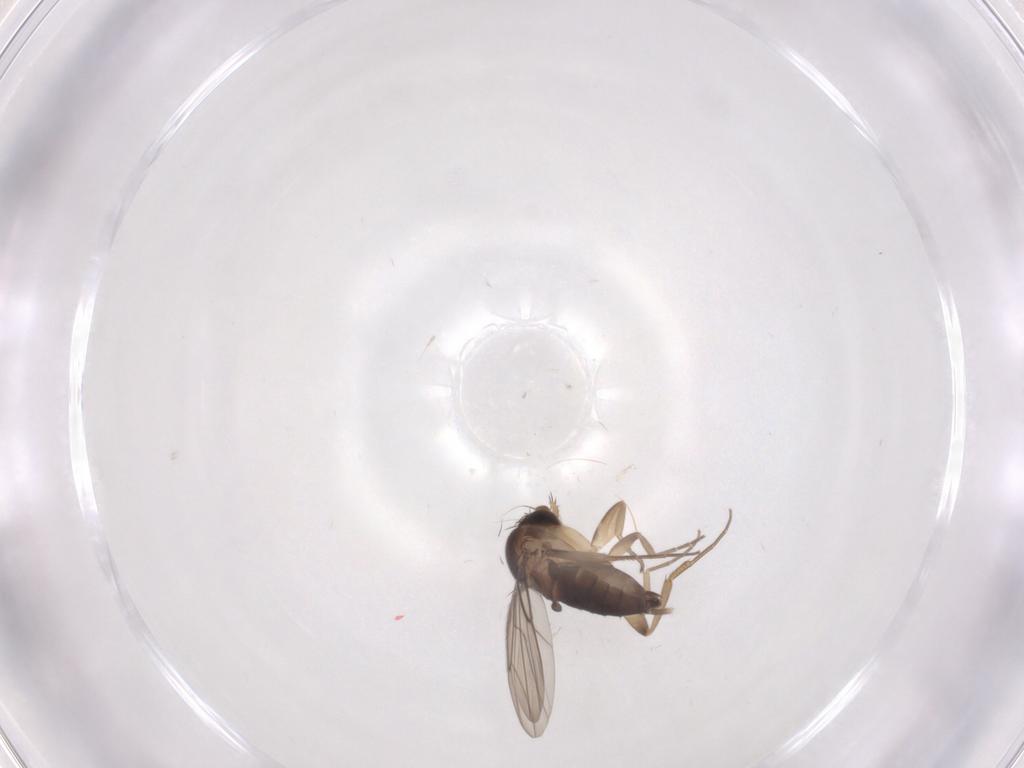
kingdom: Animalia
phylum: Arthropoda
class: Insecta
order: Diptera
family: Phoridae
